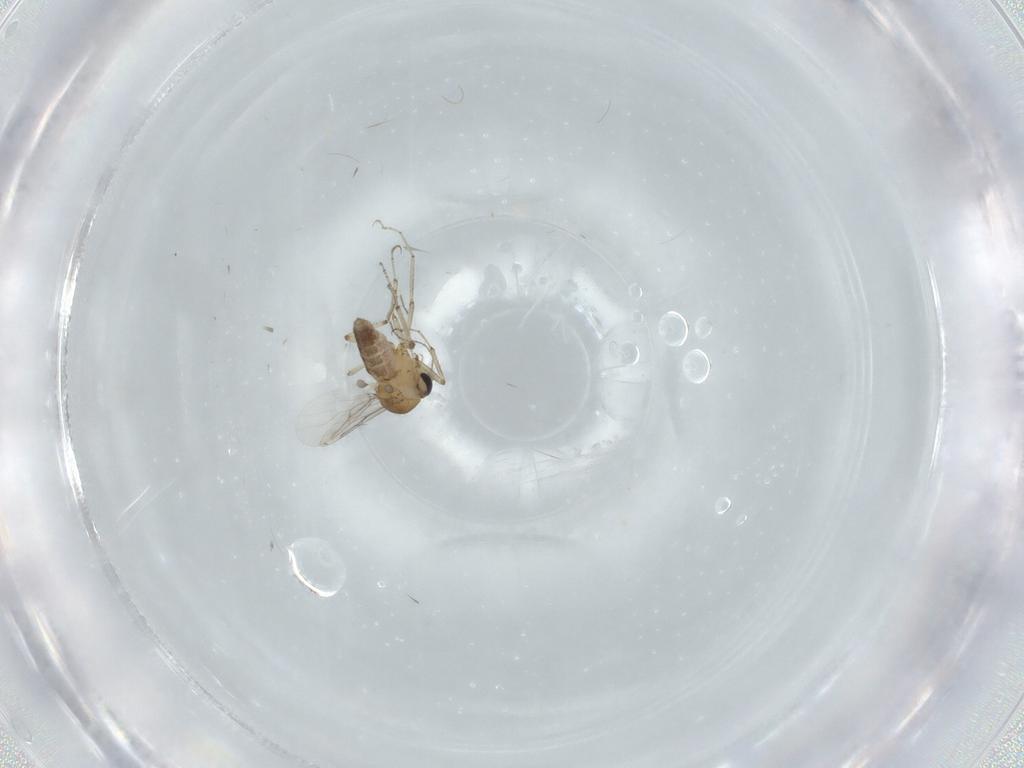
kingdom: Animalia
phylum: Arthropoda
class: Insecta
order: Diptera
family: Ceratopogonidae
